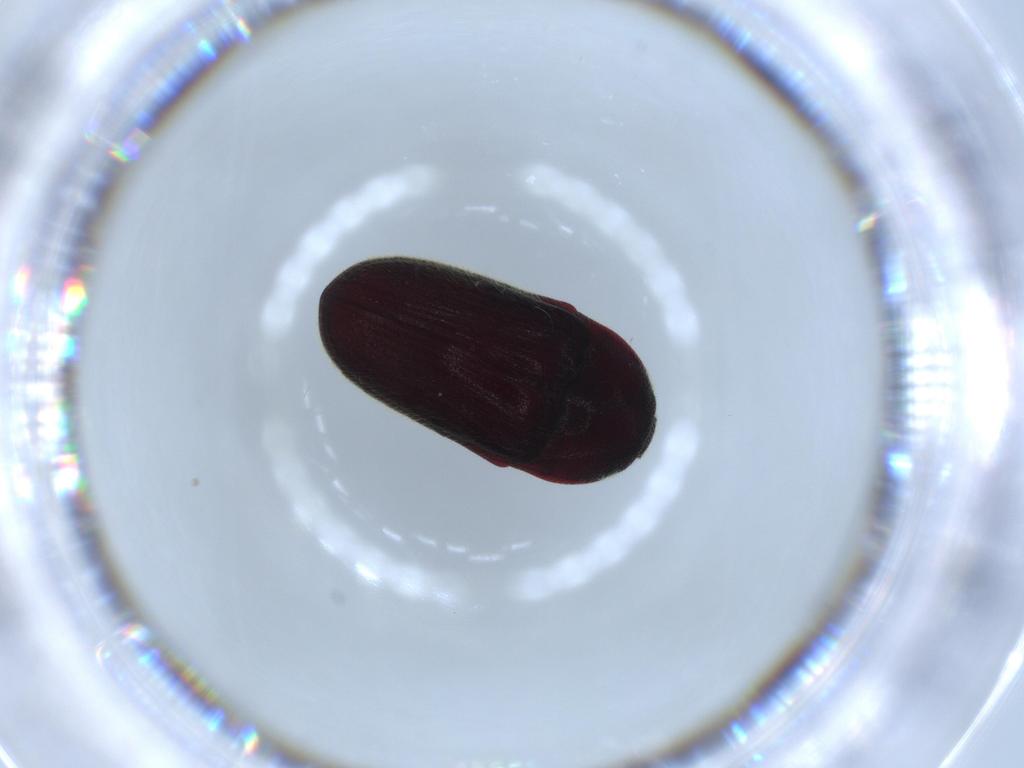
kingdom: Animalia
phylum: Arthropoda
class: Insecta
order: Coleoptera
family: Throscidae
